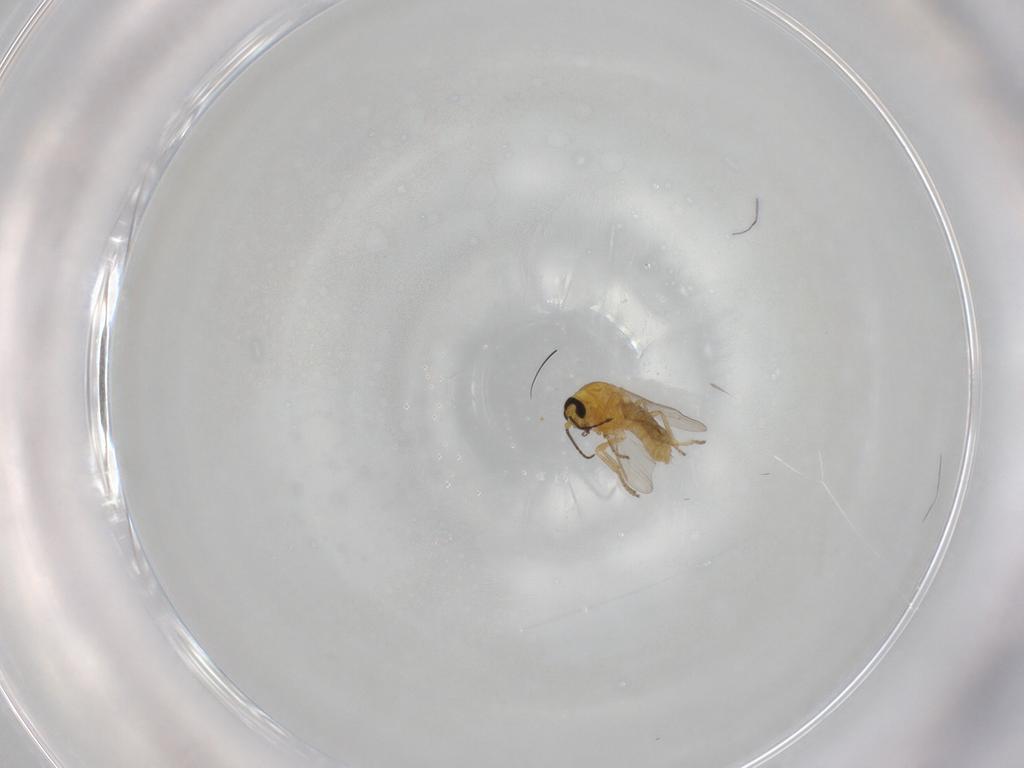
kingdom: Animalia
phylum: Arthropoda
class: Insecta
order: Diptera
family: Ceratopogonidae
